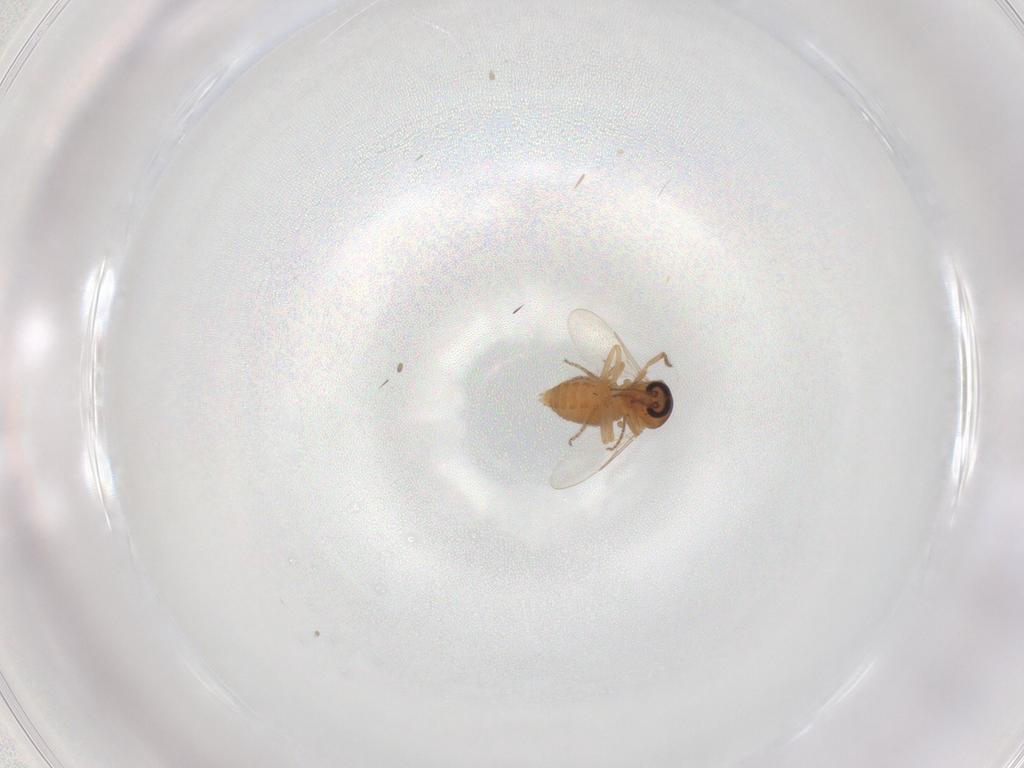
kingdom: Animalia
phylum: Arthropoda
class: Insecta
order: Diptera
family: Ceratopogonidae
